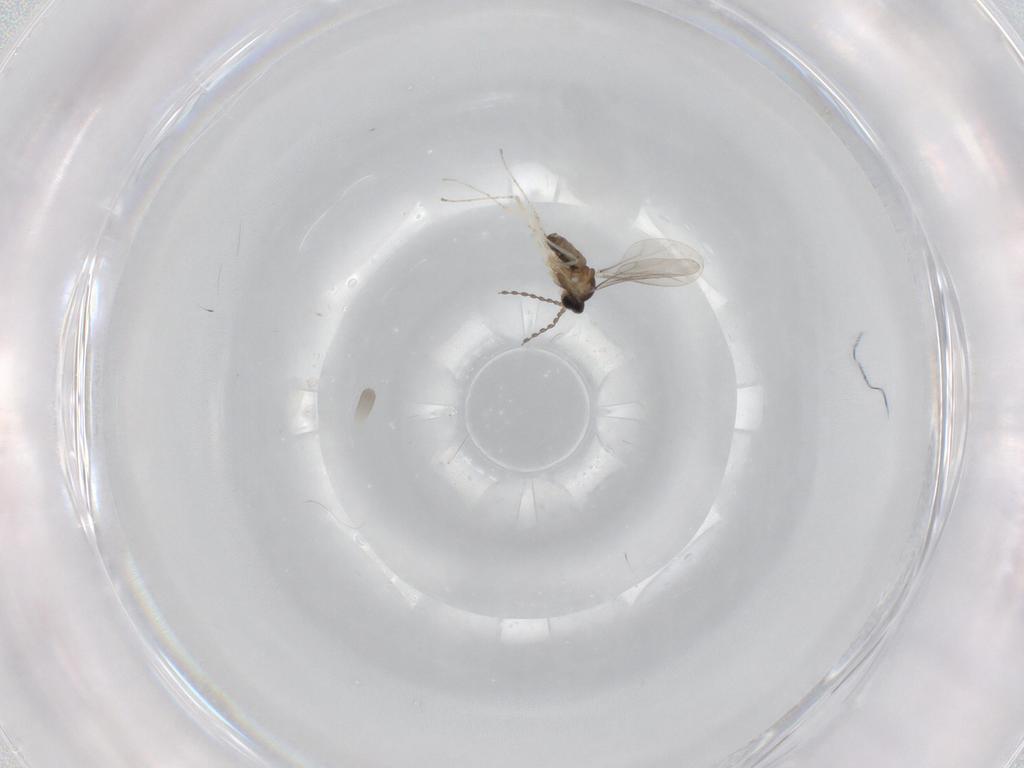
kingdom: Animalia
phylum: Arthropoda
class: Insecta
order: Diptera
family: Cecidomyiidae
